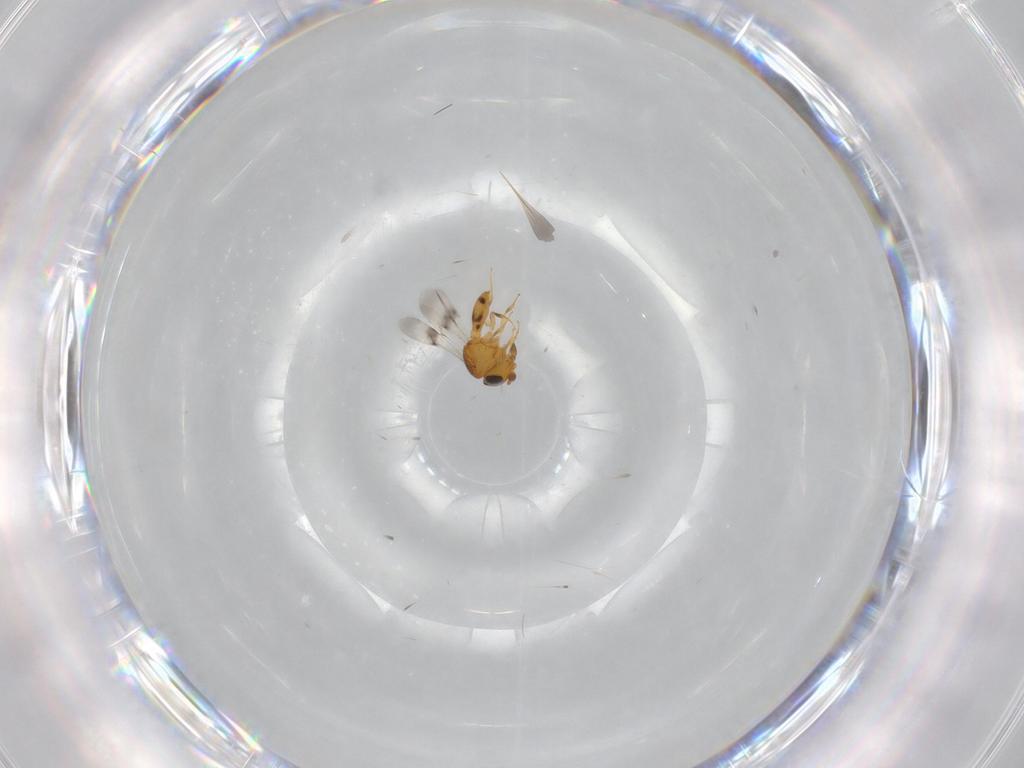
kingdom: Animalia
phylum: Arthropoda
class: Insecta
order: Hymenoptera
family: Scelionidae
